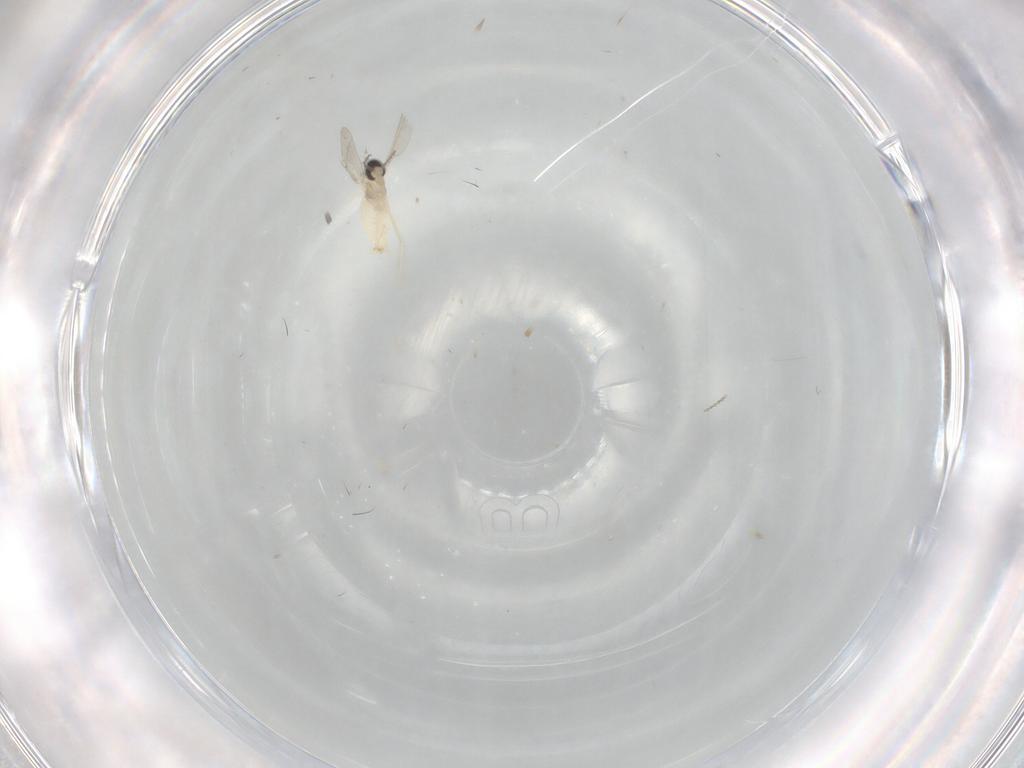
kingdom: Animalia
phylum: Arthropoda
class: Insecta
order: Diptera
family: Cecidomyiidae
